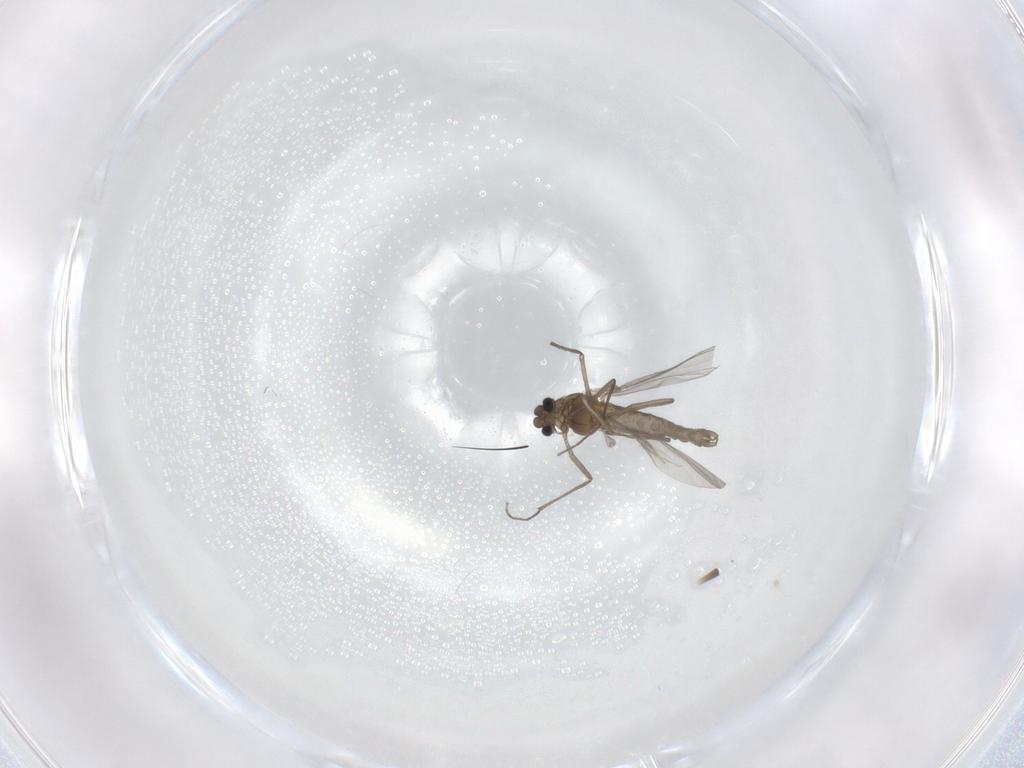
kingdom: Animalia
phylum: Arthropoda
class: Insecta
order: Diptera
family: Chironomidae
